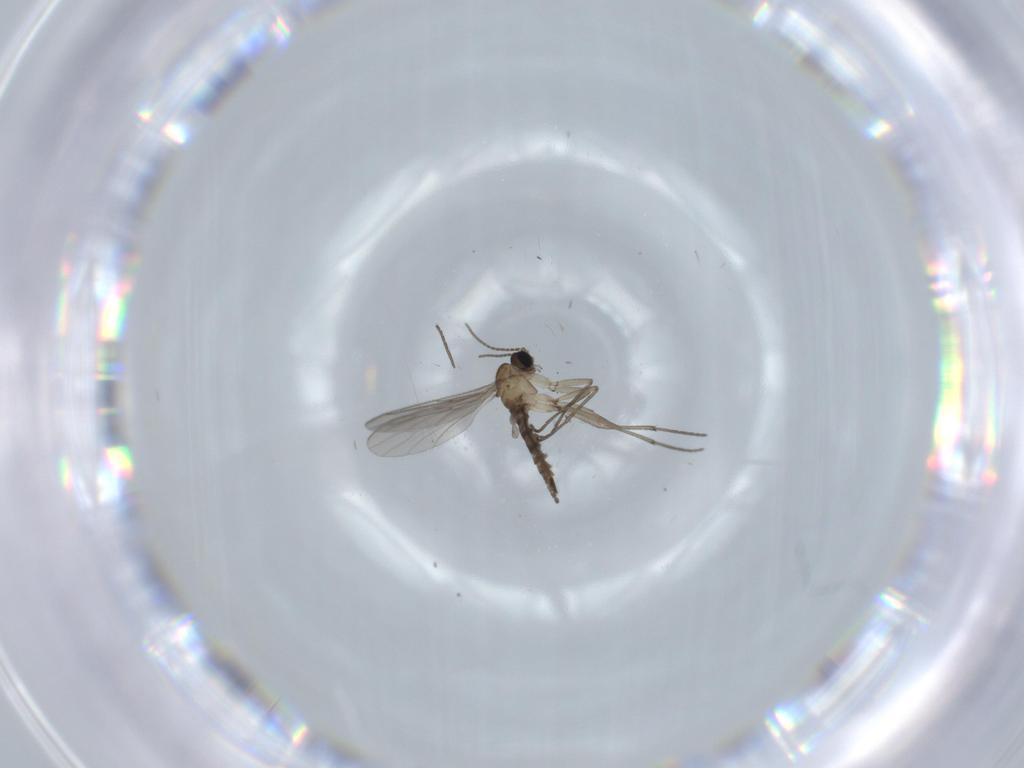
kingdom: Animalia
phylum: Arthropoda
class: Insecta
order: Diptera
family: Sciaridae
